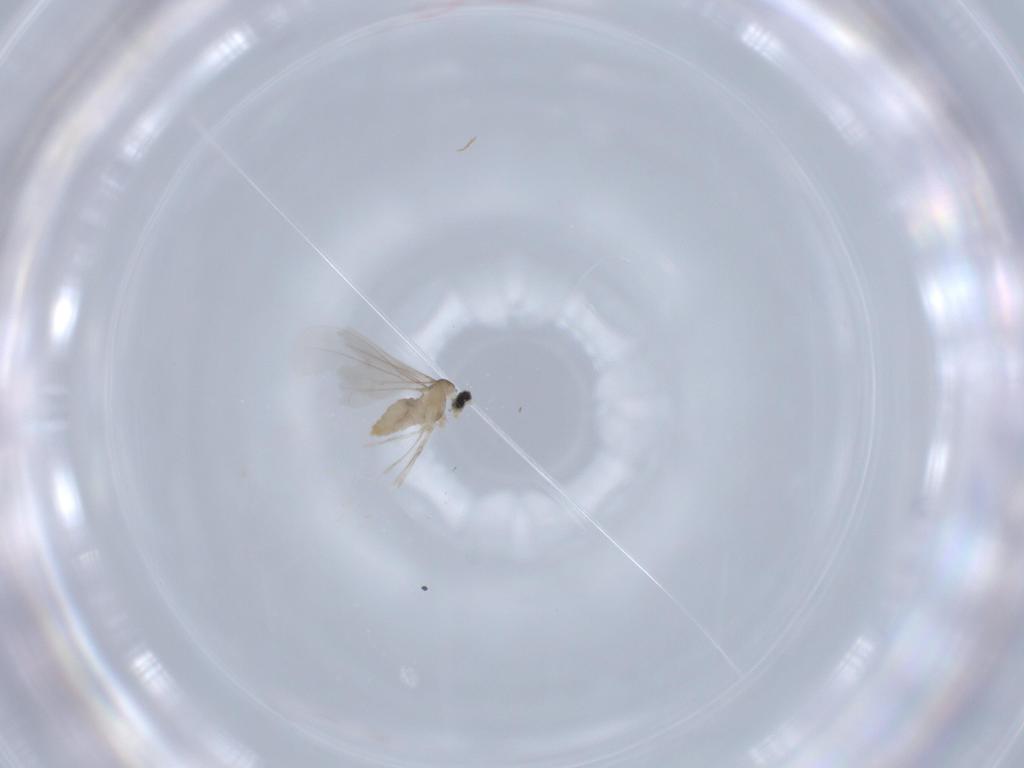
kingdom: Animalia
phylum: Arthropoda
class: Insecta
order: Diptera
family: Cecidomyiidae
